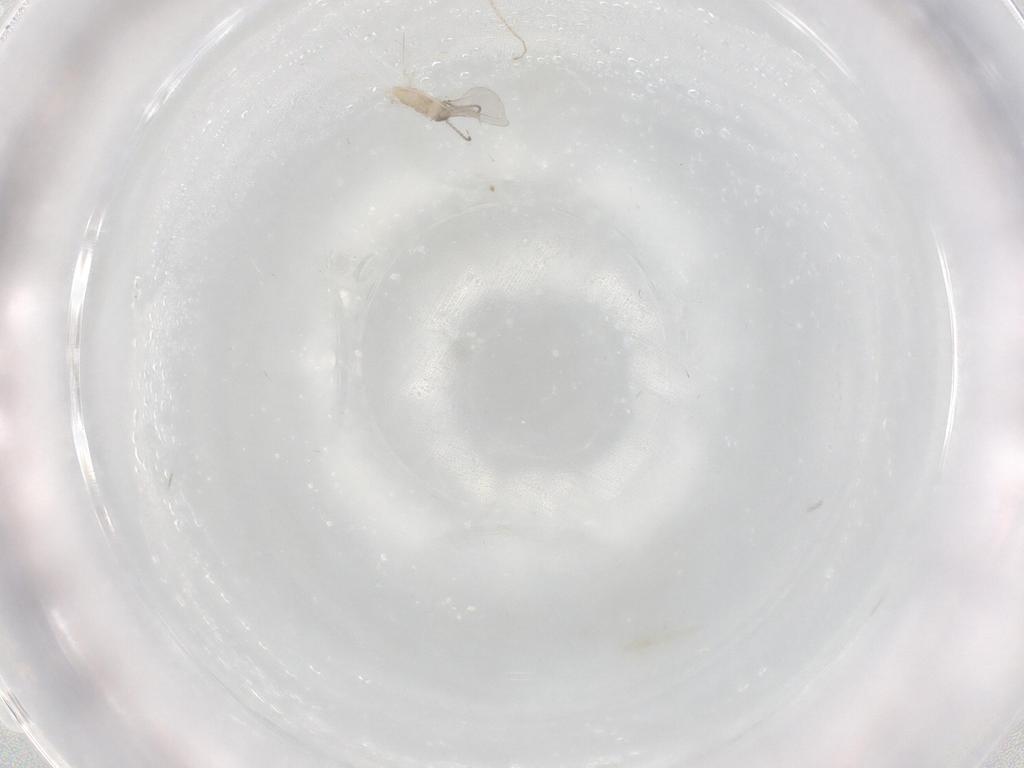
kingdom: Animalia
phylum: Arthropoda
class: Insecta
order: Diptera
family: Cecidomyiidae
